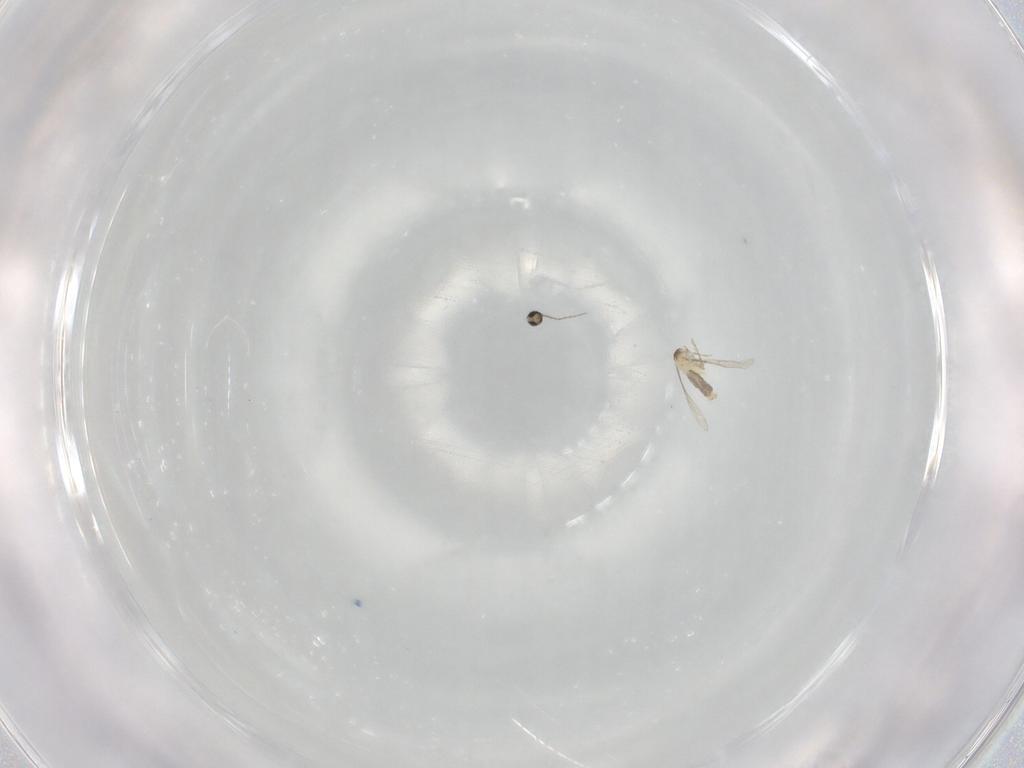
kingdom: Animalia
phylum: Arthropoda
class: Insecta
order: Diptera
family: Cecidomyiidae
